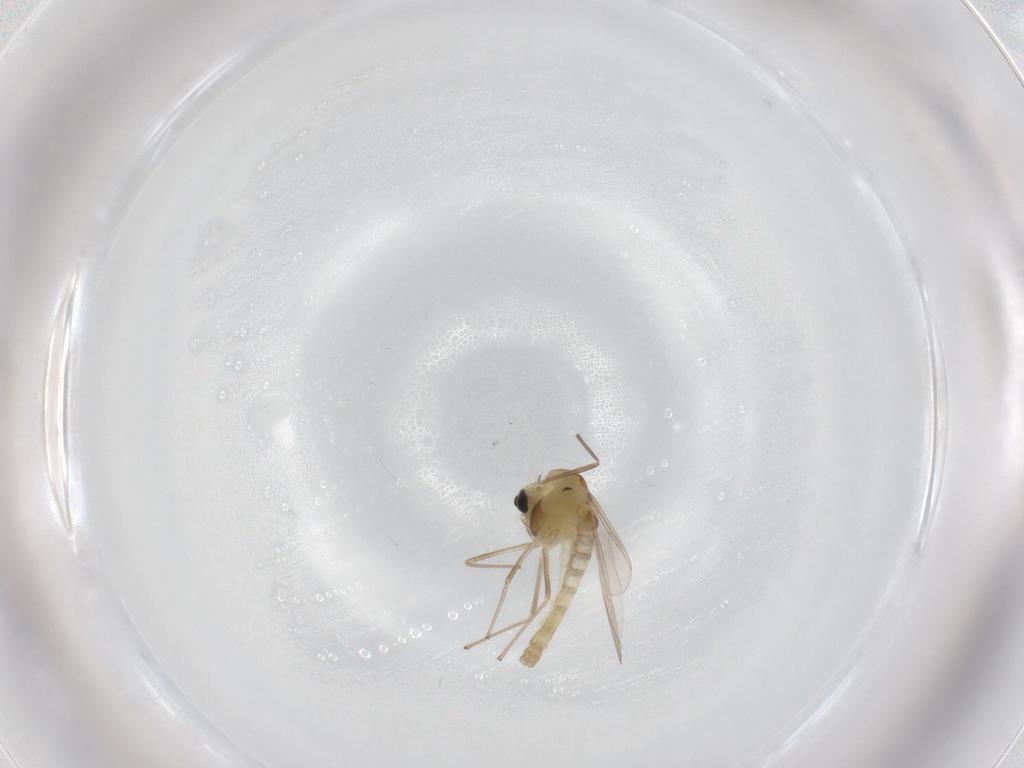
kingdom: Animalia
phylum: Arthropoda
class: Insecta
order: Diptera
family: Chironomidae
